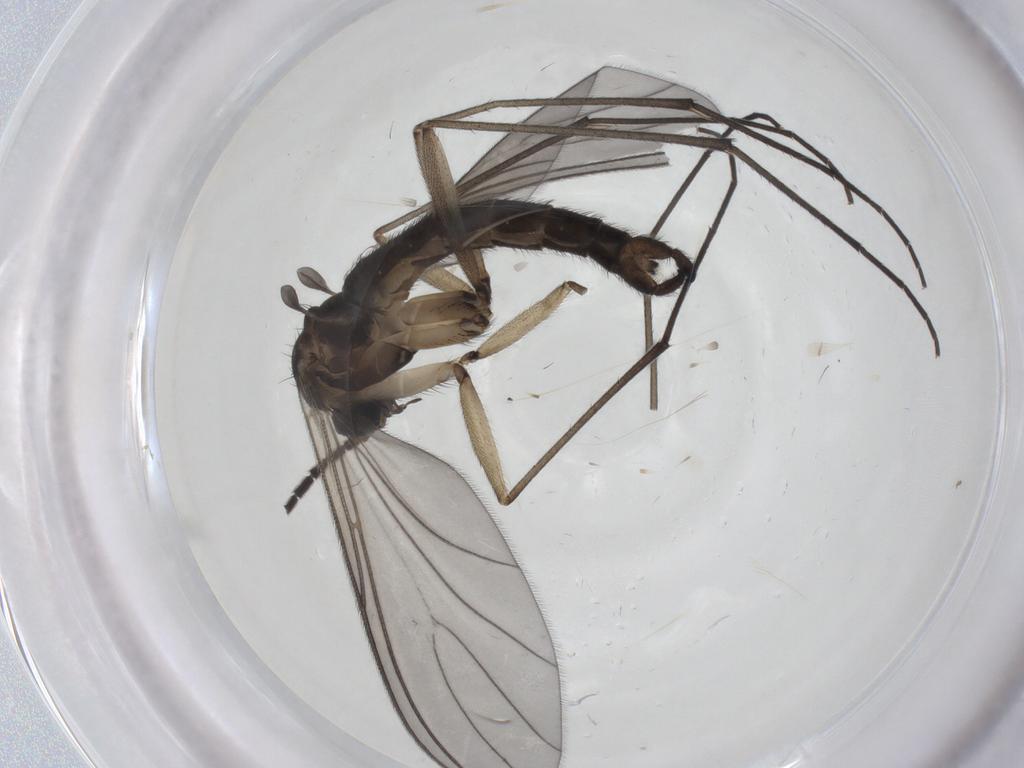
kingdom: Animalia
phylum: Arthropoda
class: Insecta
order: Diptera
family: Sciaridae
